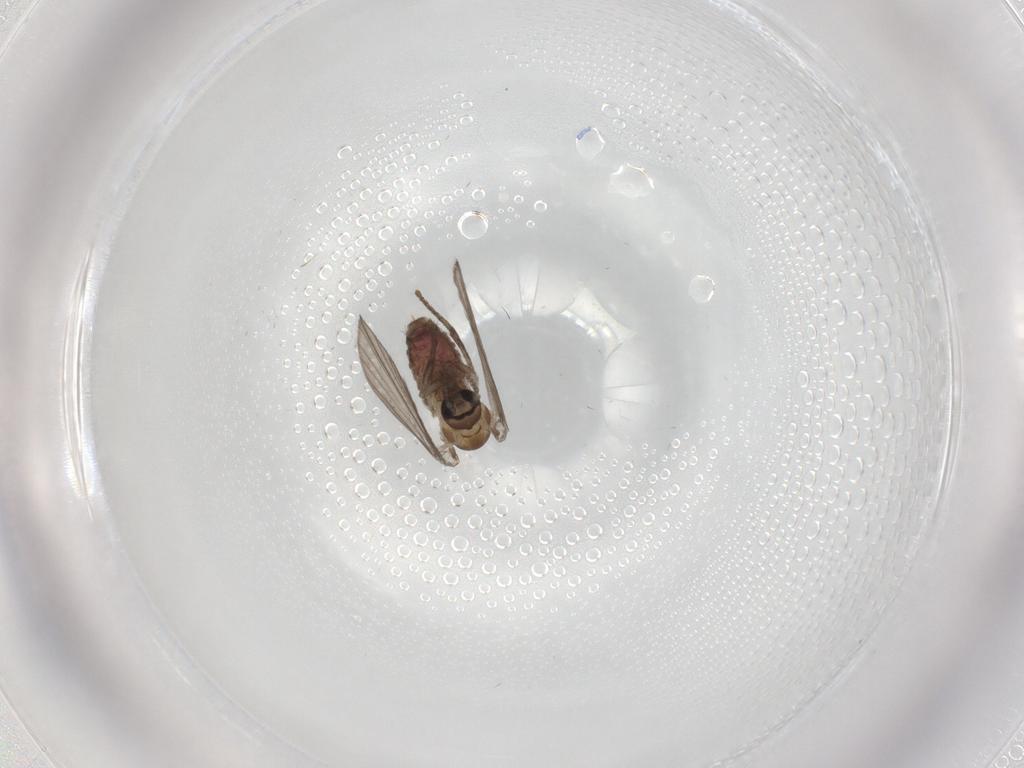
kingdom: Animalia
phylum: Arthropoda
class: Insecta
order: Diptera
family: Psychodidae
